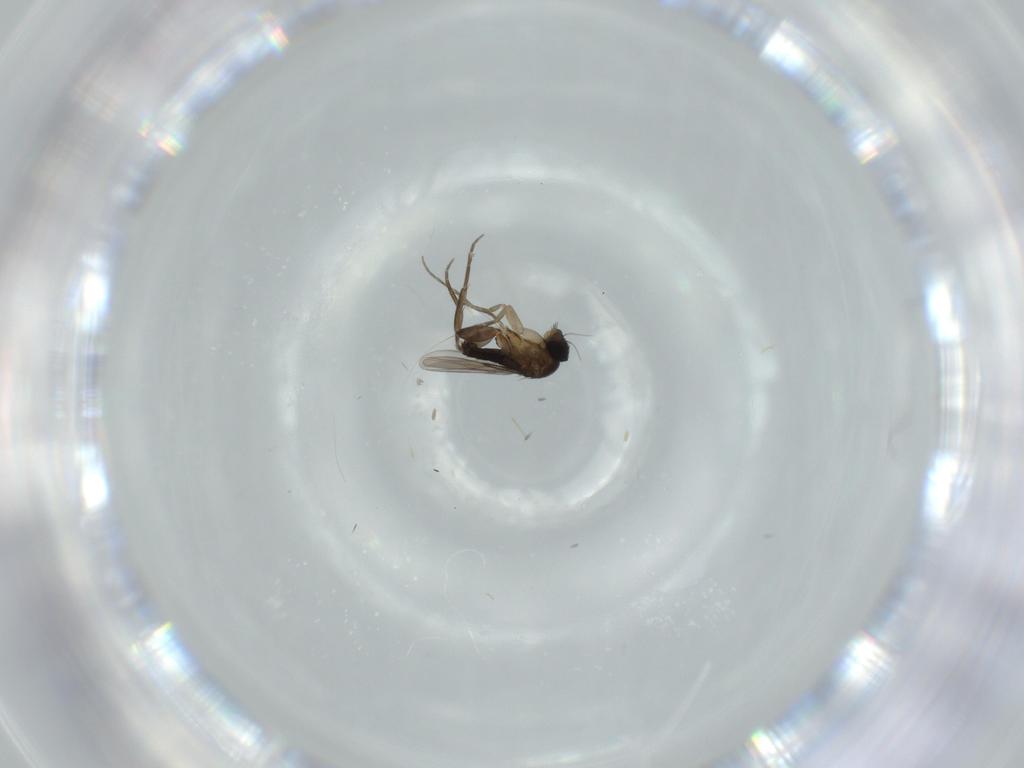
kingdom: Animalia
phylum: Arthropoda
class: Insecta
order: Diptera
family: Phoridae
